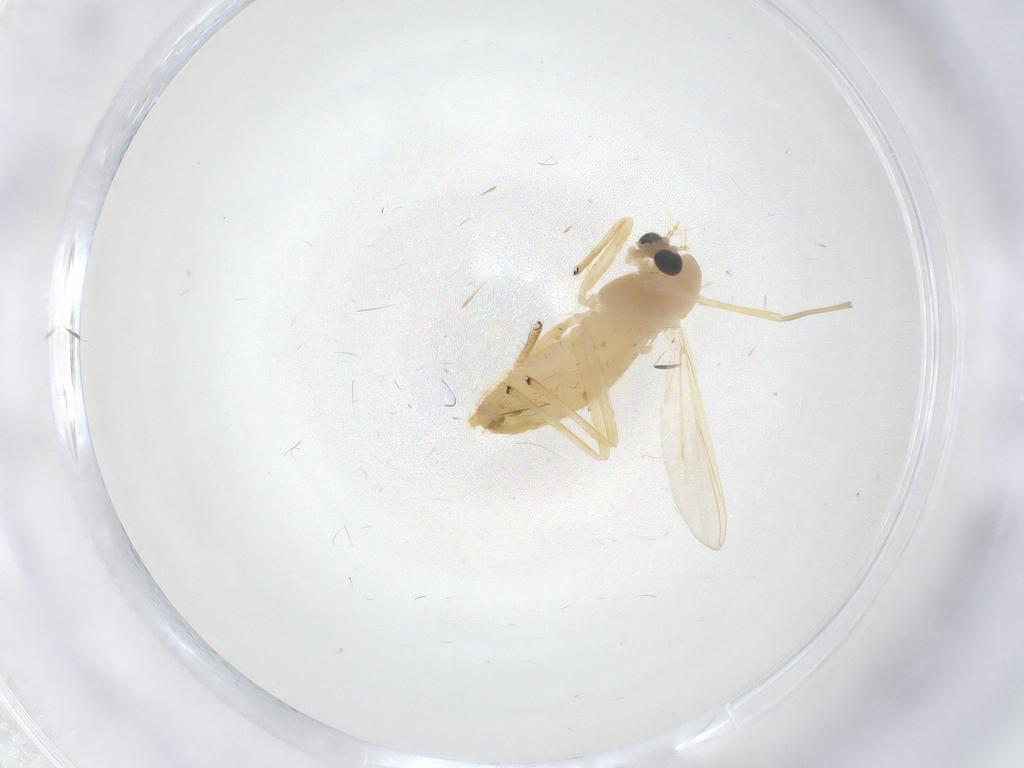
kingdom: Animalia
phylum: Arthropoda
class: Insecta
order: Diptera
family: Chironomidae
